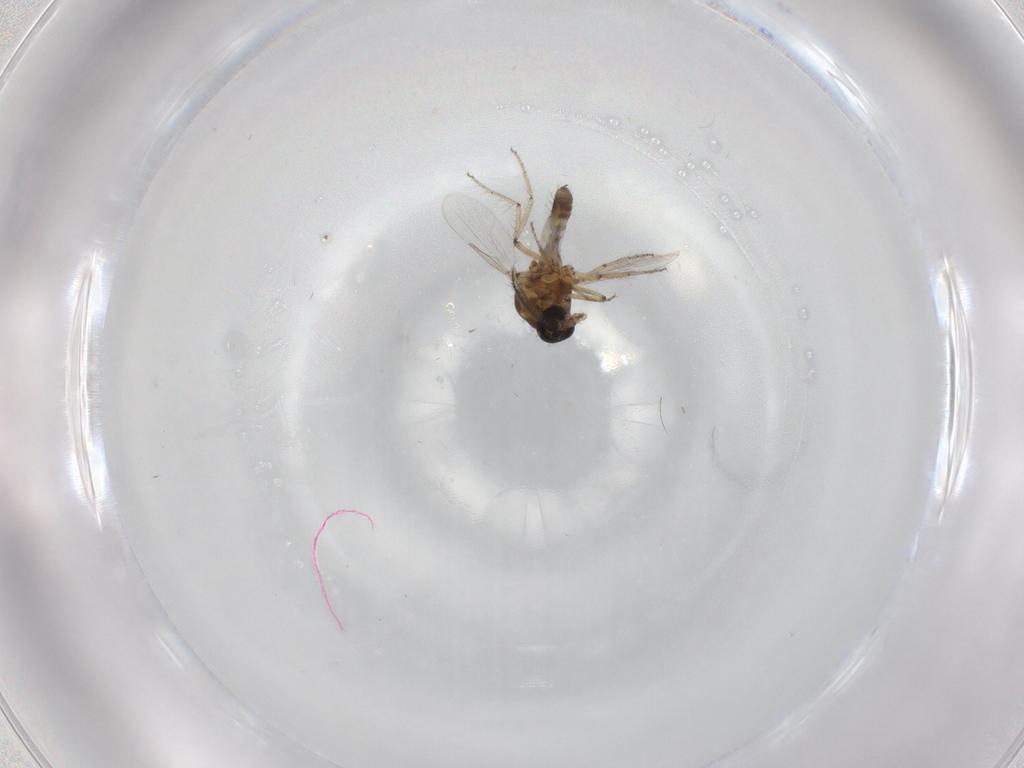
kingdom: Animalia
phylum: Arthropoda
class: Insecta
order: Diptera
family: Ceratopogonidae
